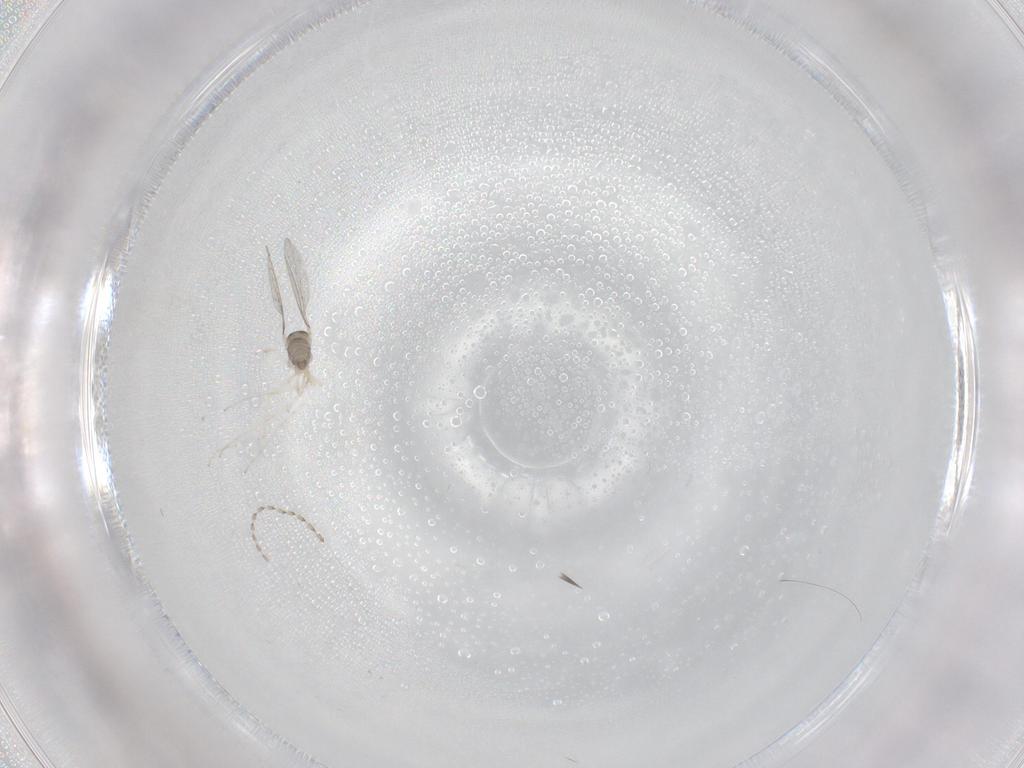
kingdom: Animalia
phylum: Arthropoda
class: Insecta
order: Diptera
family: Cecidomyiidae
